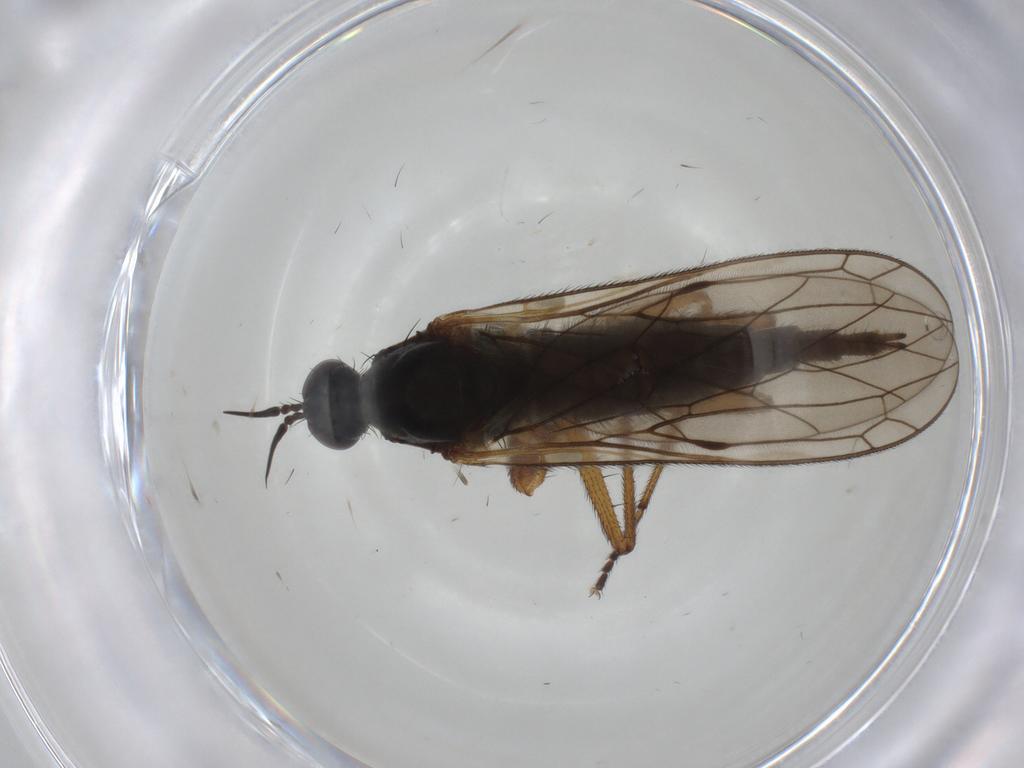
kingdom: Animalia
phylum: Arthropoda
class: Insecta
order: Diptera
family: Empididae
